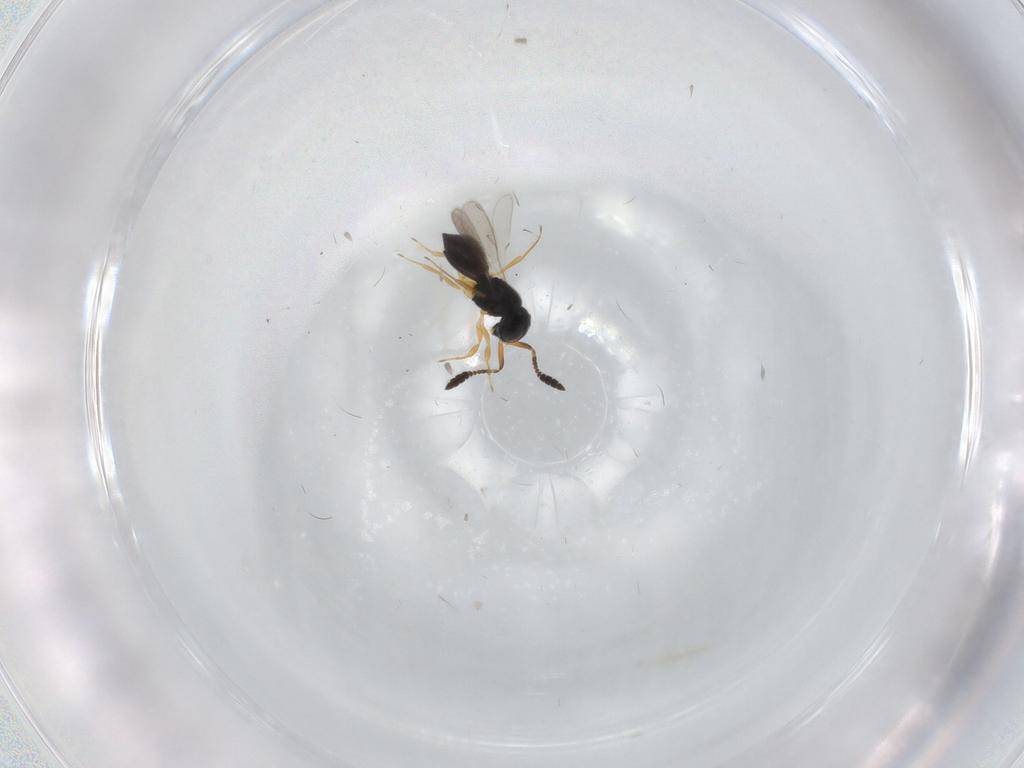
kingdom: Animalia
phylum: Arthropoda
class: Insecta
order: Hymenoptera
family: Scelionidae
